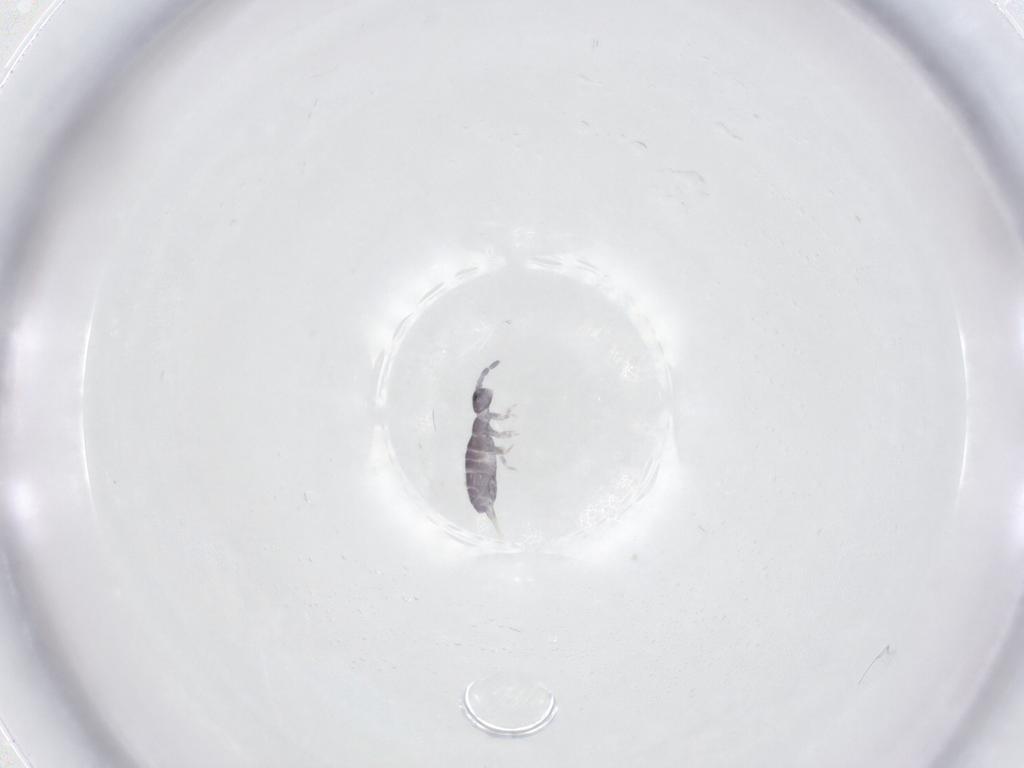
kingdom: Animalia
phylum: Arthropoda
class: Collembola
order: Entomobryomorpha
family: Isotomidae
